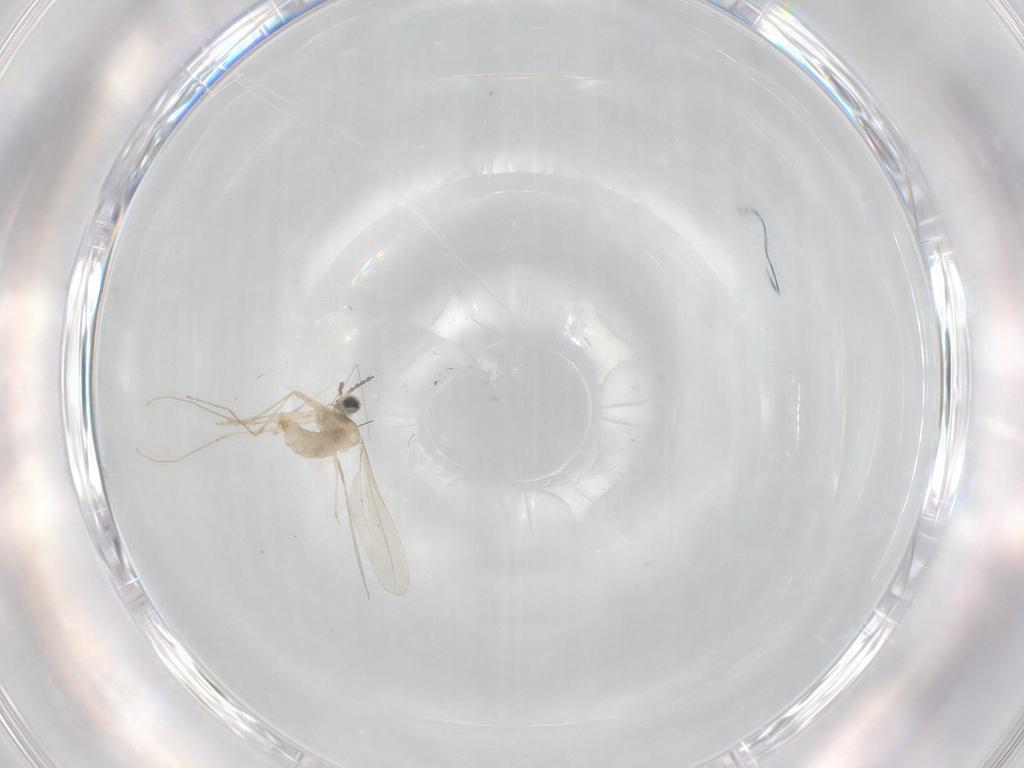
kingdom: Animalia
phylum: Arthropoda
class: Insecta
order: Diptera
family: Cecidomyiidae
